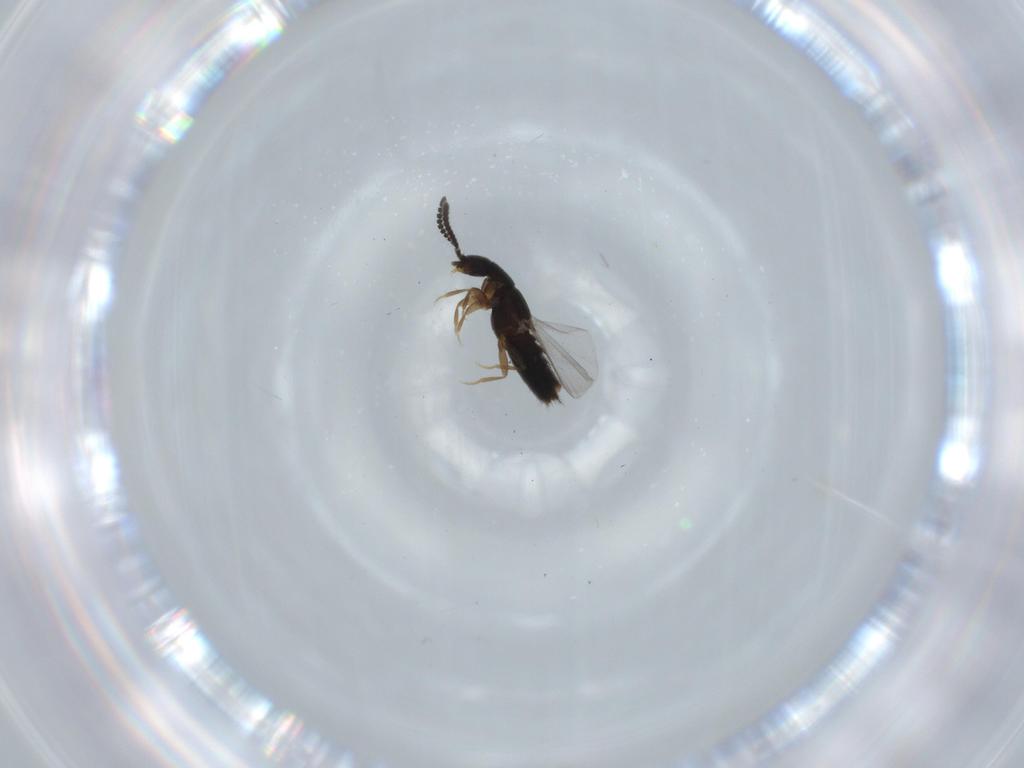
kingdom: Animalia
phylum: Arthropoda
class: Insecta
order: Coleoptera
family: Staphylinidae
